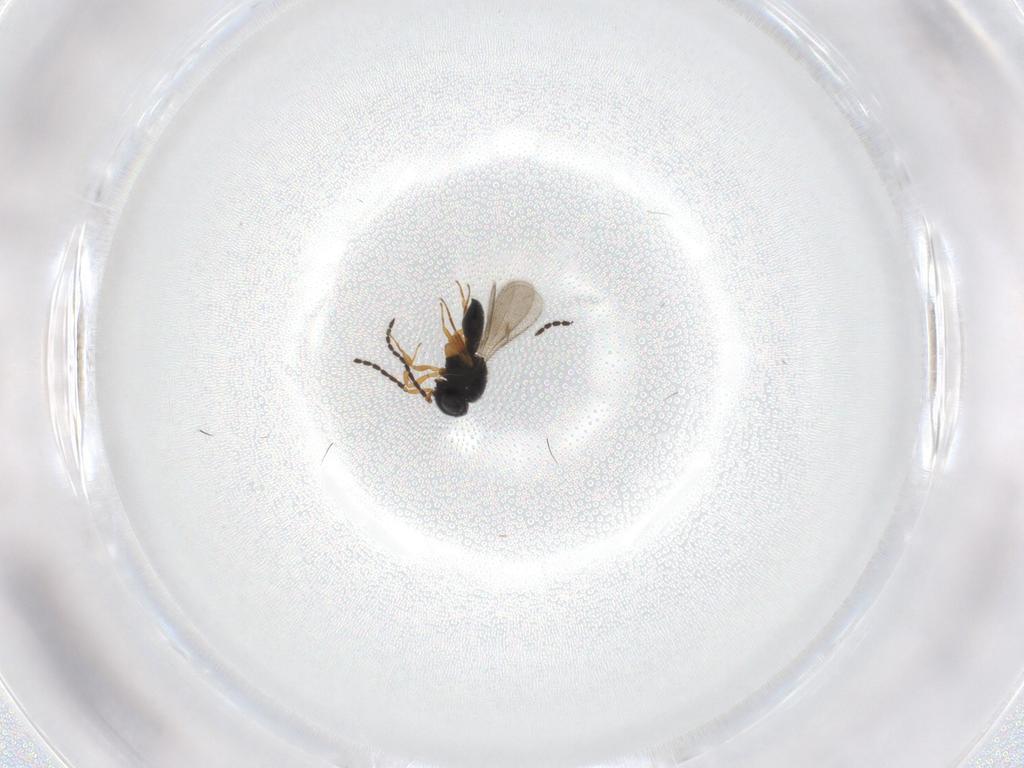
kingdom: Animalia
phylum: Arthropoda
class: Insecta
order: Hymenoptera
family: Scelionidae
